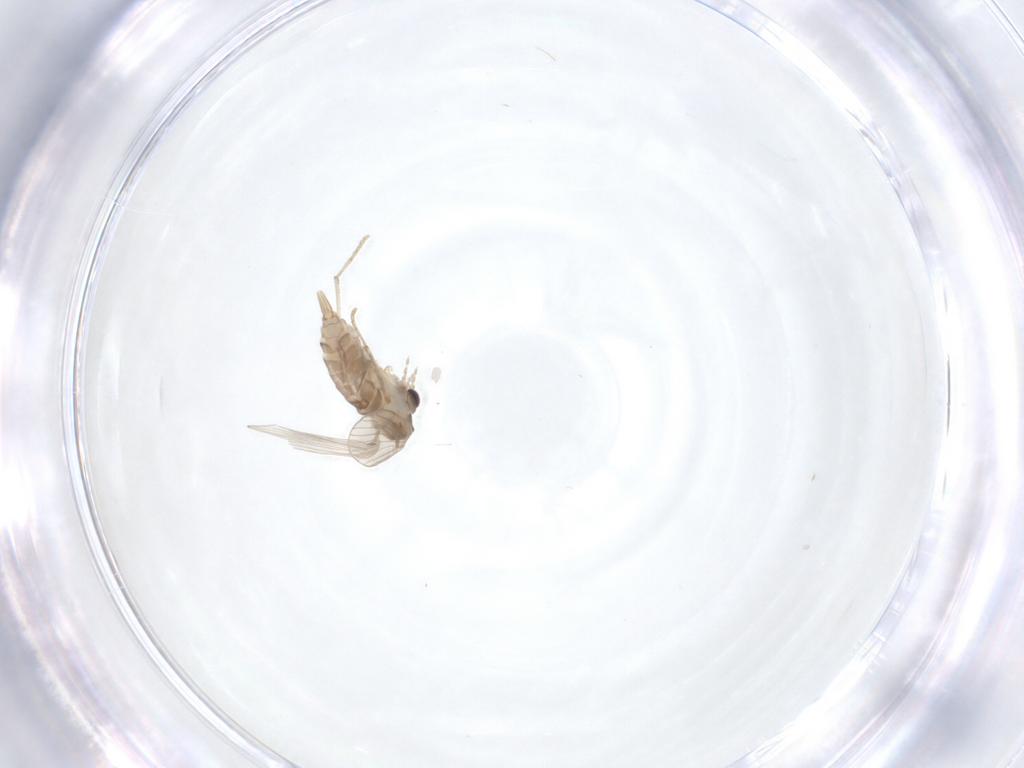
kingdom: Animalia
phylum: Arthropoda
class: Insecta
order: Diptera
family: Psychodidae
